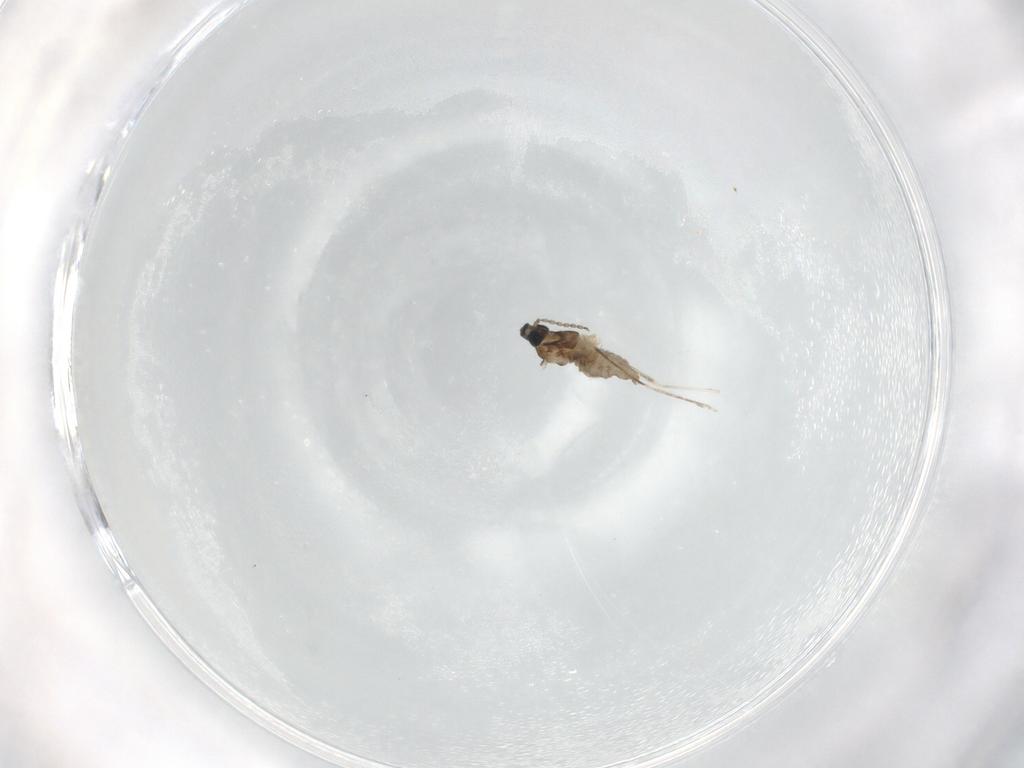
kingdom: Animalia
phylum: Arthropoda
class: Insecta
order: Diptera
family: Cecidomyiidae
